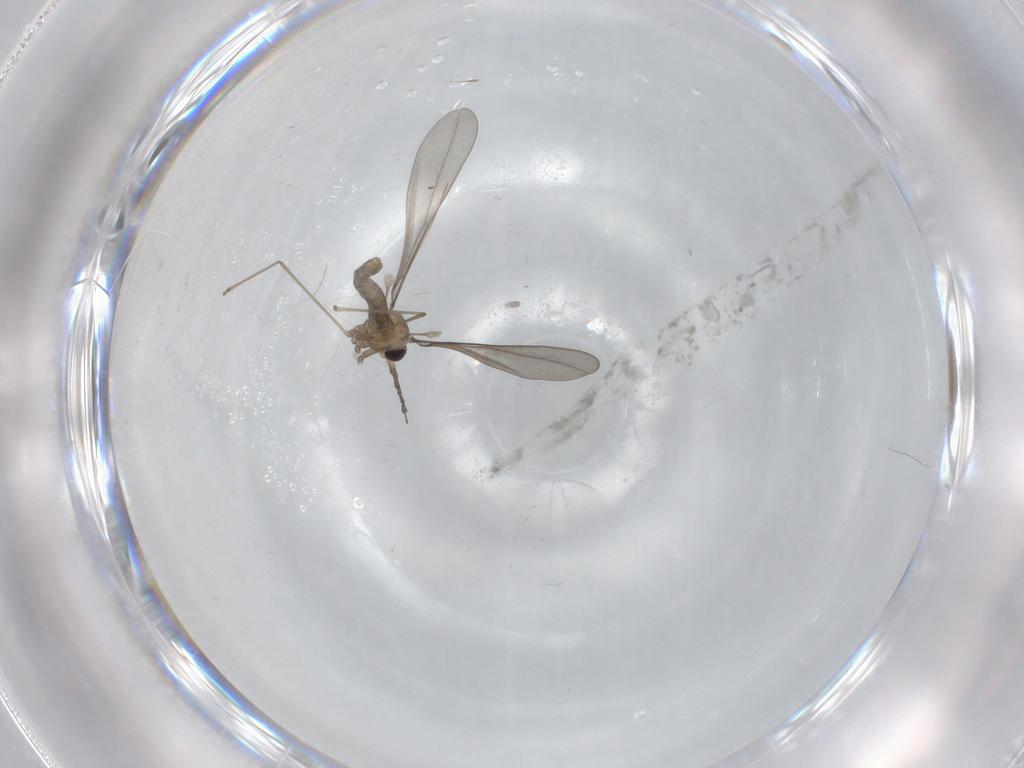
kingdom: Animalia
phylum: Arthropoda
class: Insecta
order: Diptera
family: Cecidomyiidae
